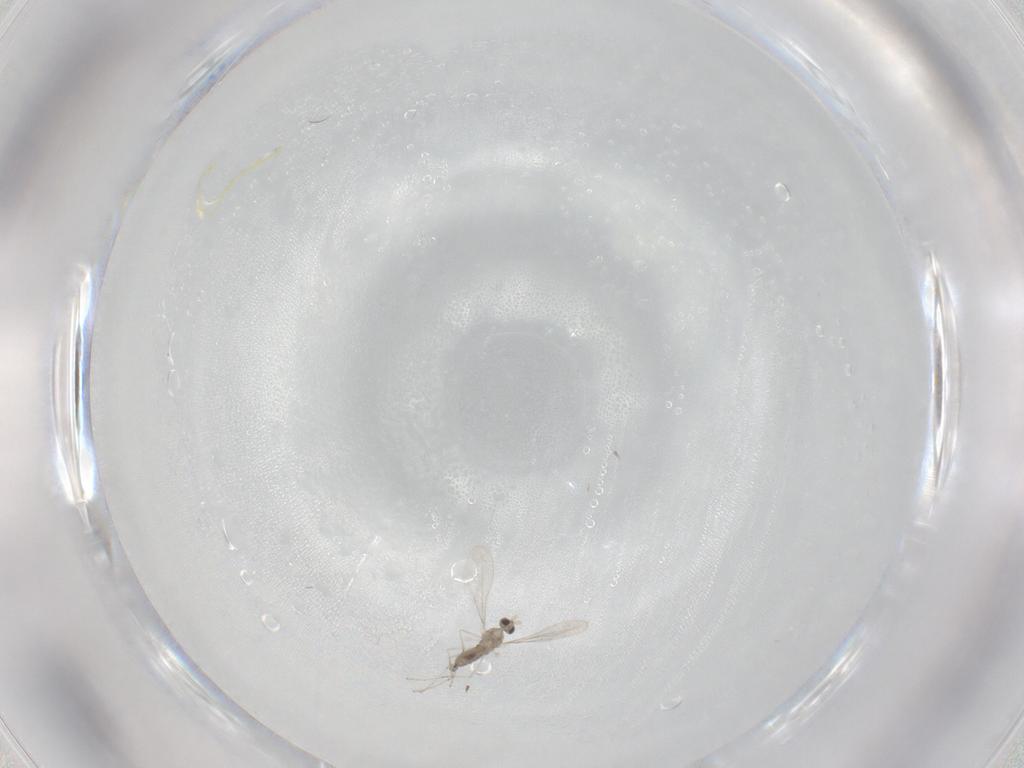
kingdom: Animalia
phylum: Arthropoda
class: Insecta
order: Diptera
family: Cecidomyiidae
